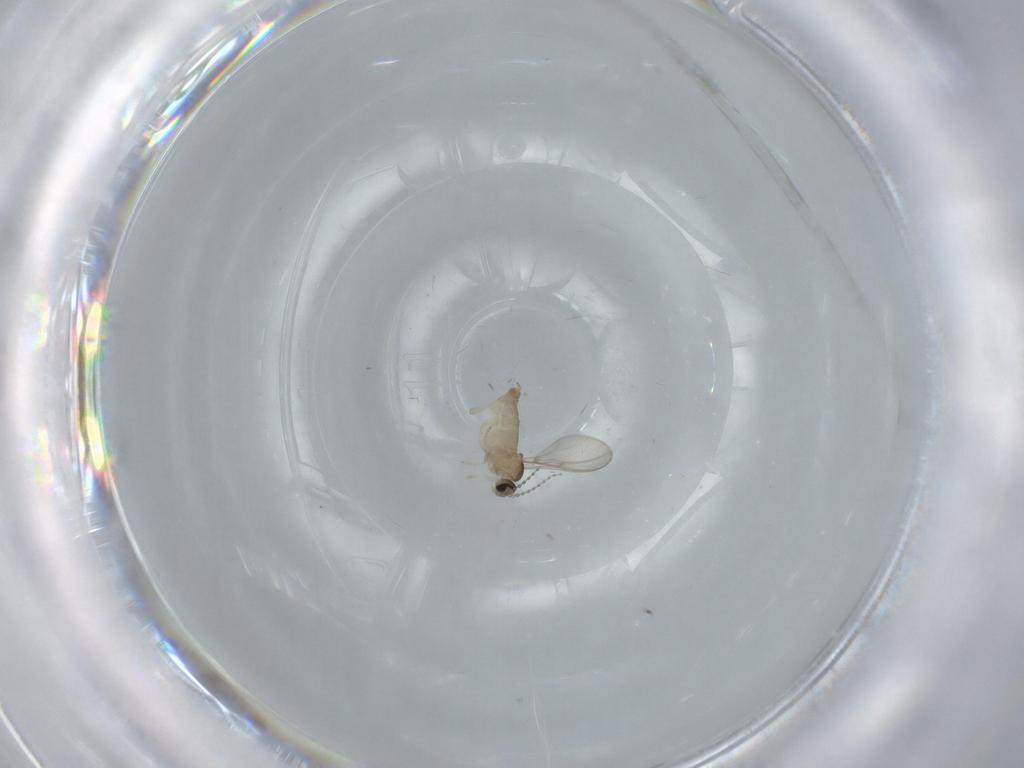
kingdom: Animalia
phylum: Arthropoda
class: Insecta
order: Diptera
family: Cecidomyiidae
